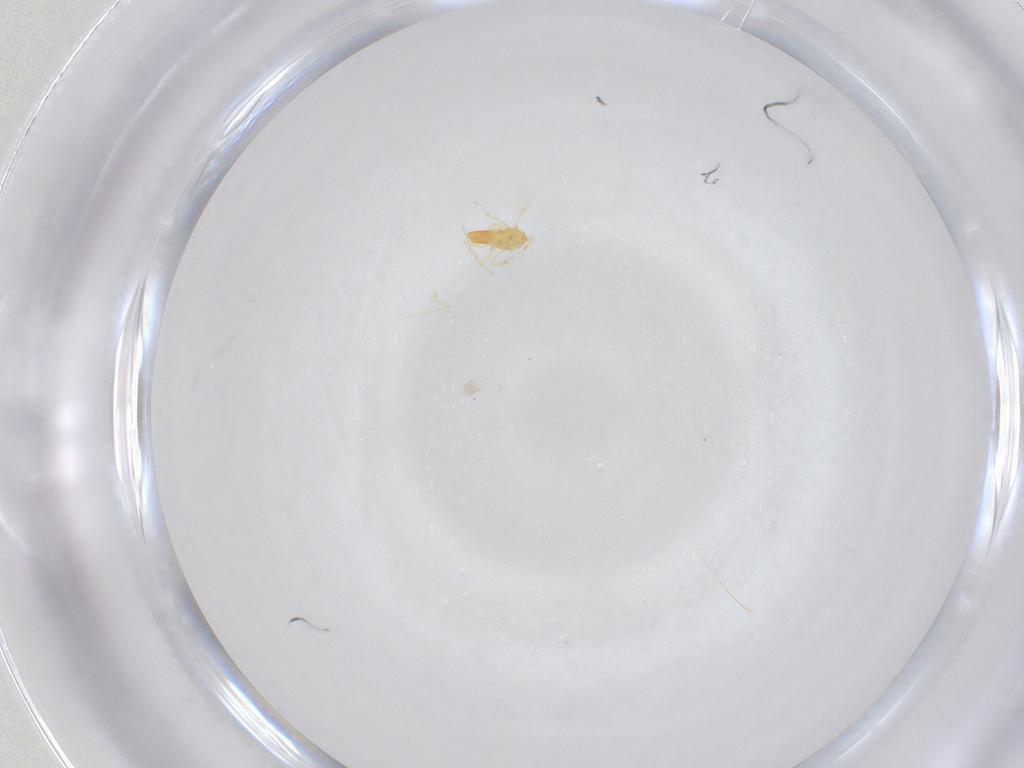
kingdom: Animalia
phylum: Arthropoda
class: Insecta
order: Hymenoptera
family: Aphelinidae
